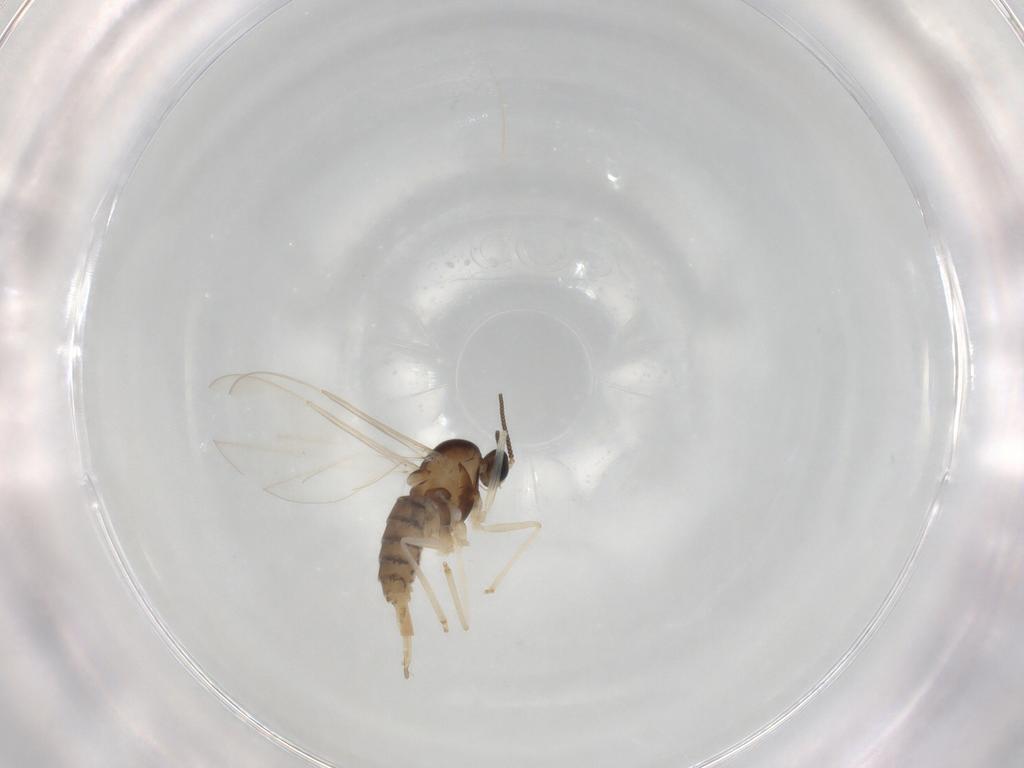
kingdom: Animalia
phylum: Arthropoda
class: Insecta
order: Diptera
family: Cecidomyiidae
